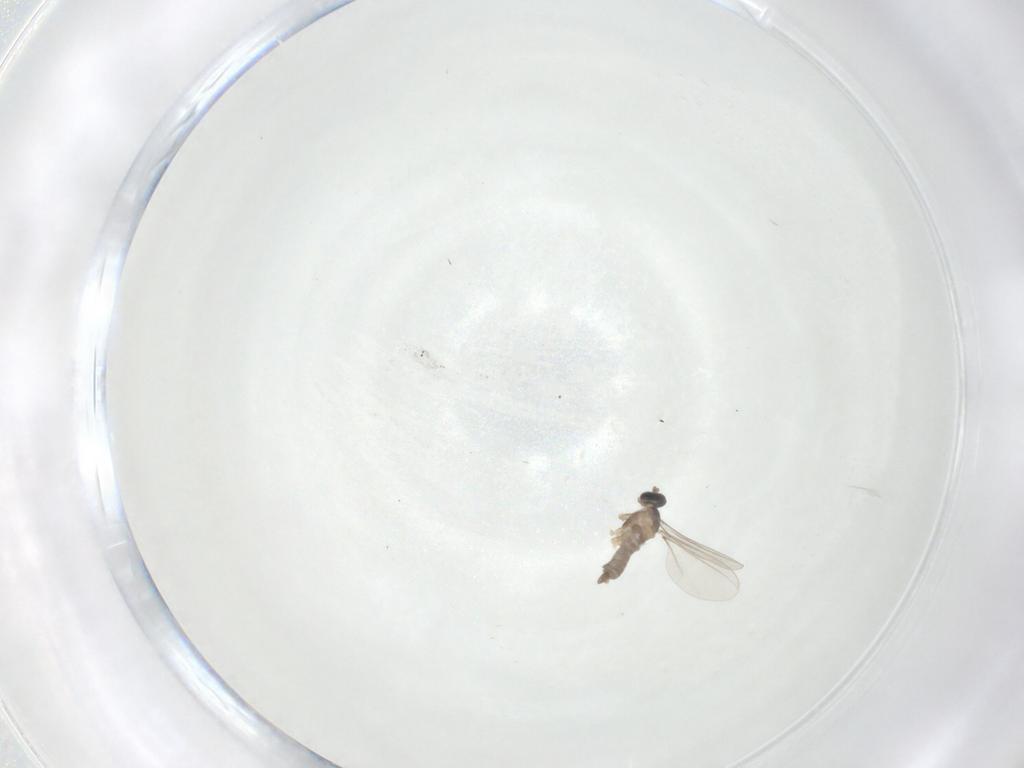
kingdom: Animalia
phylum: Arthropoda
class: Insecta
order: Diptera
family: Cecidomyiidae
